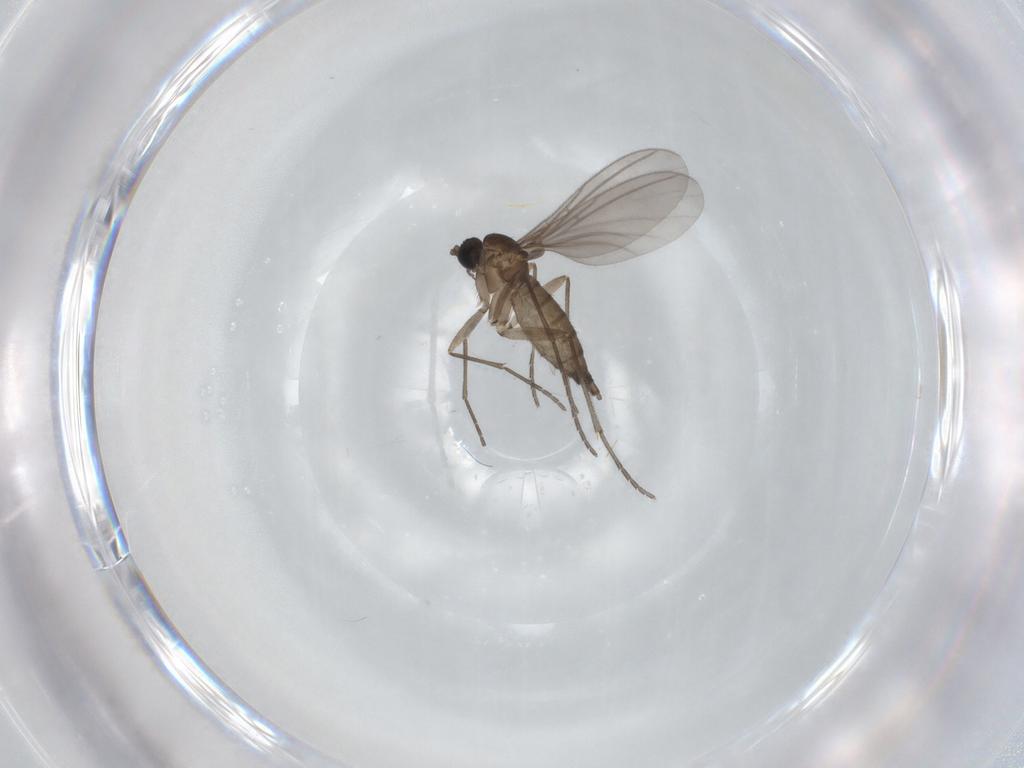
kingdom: Animalia
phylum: Arthropoda
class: Insecta
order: Diptera
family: Sciaridae
